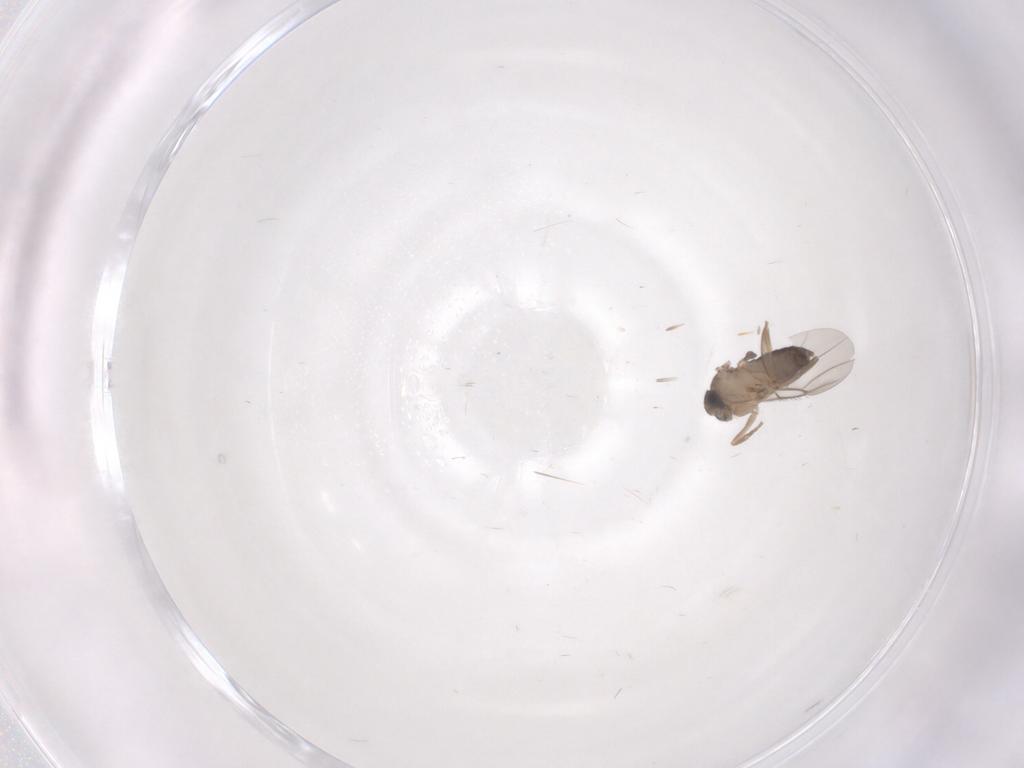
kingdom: Animalia
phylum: Arthropoda
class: Insecta
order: Diptera
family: Phoridae
